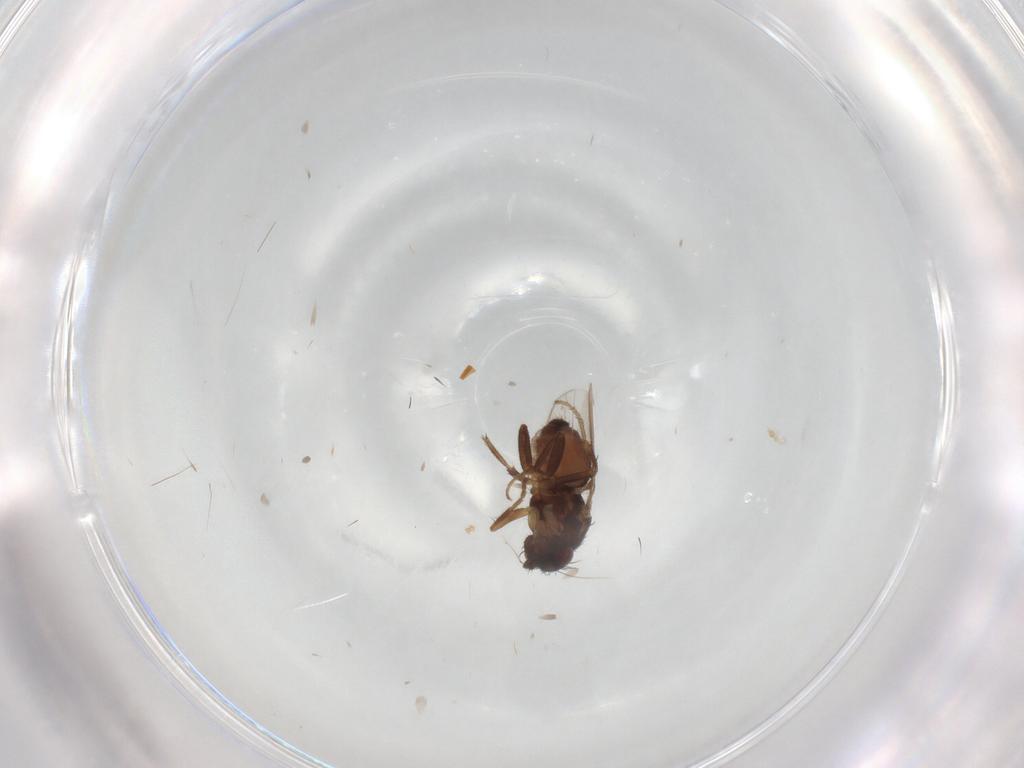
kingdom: Animalia
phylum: Arthropoda
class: Insecta
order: Diptera
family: Sphaeroceridae
